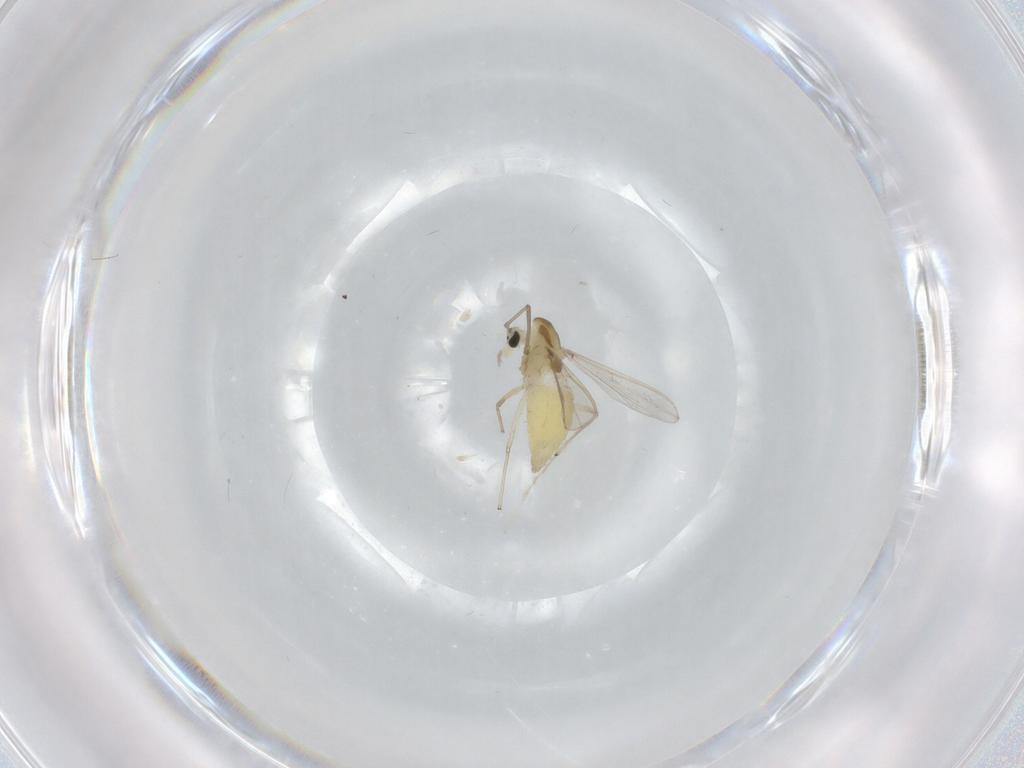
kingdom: Animalia
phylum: Arthropoda
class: Insecta
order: Diptera
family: Chironomidae
